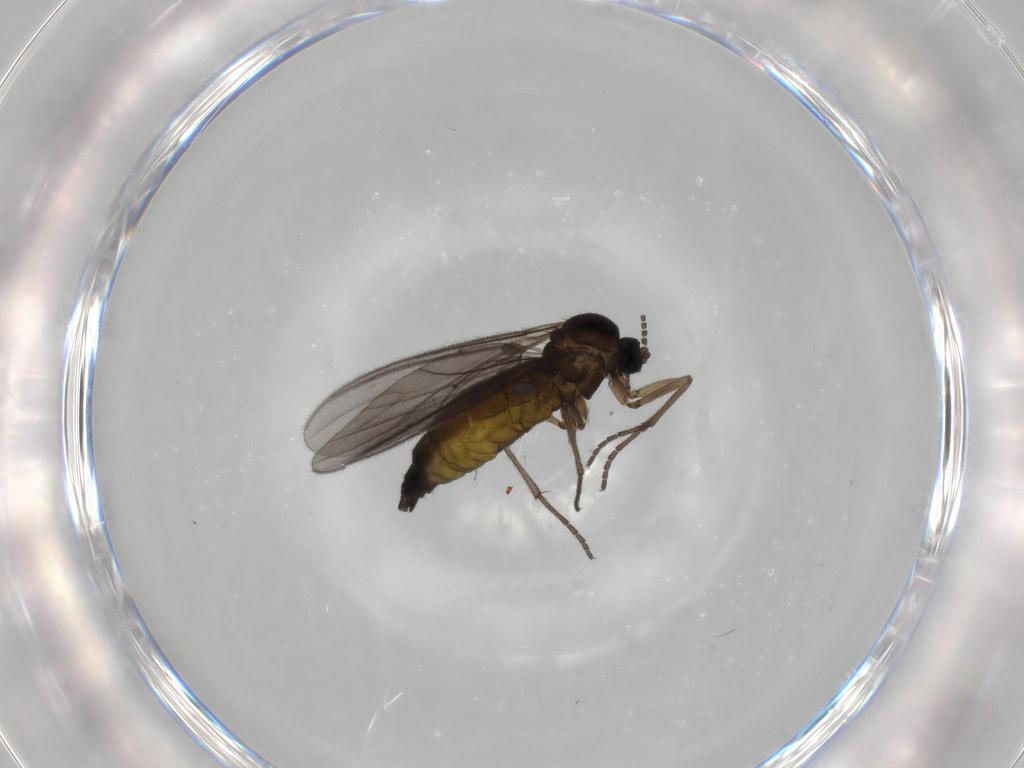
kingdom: Animalia
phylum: Arthropoda
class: Insecta
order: Diptera
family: Sciaridae
